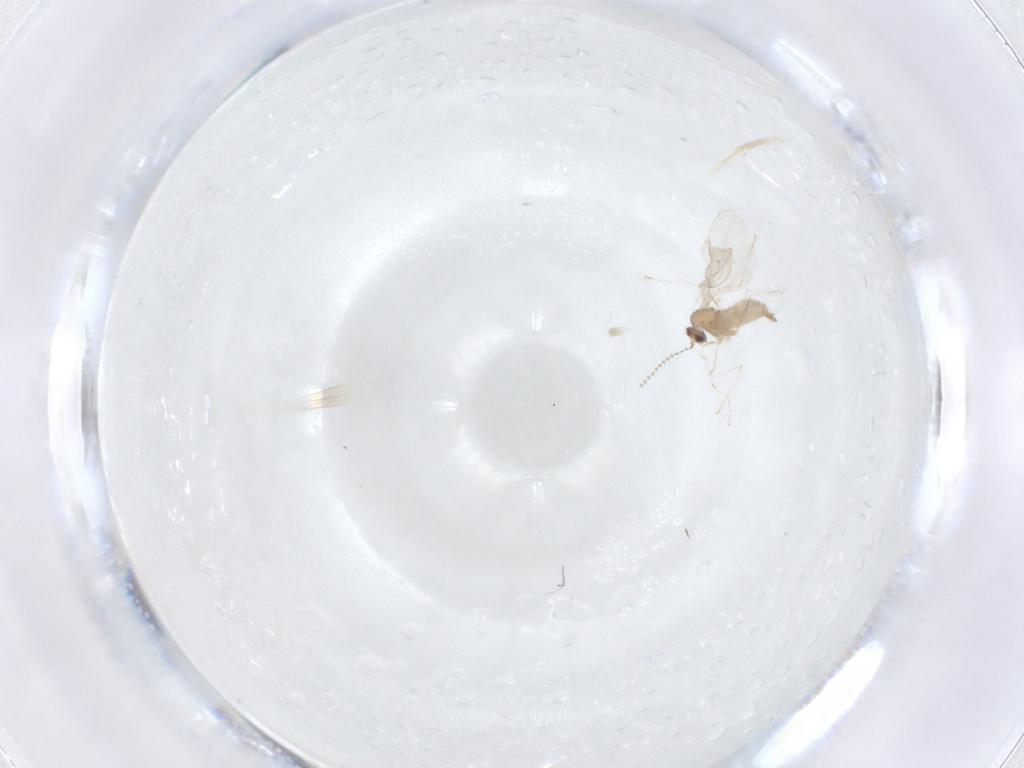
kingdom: Animalia
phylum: Arthropoda
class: Insecta
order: Diptera
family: Cecidomyiidae
